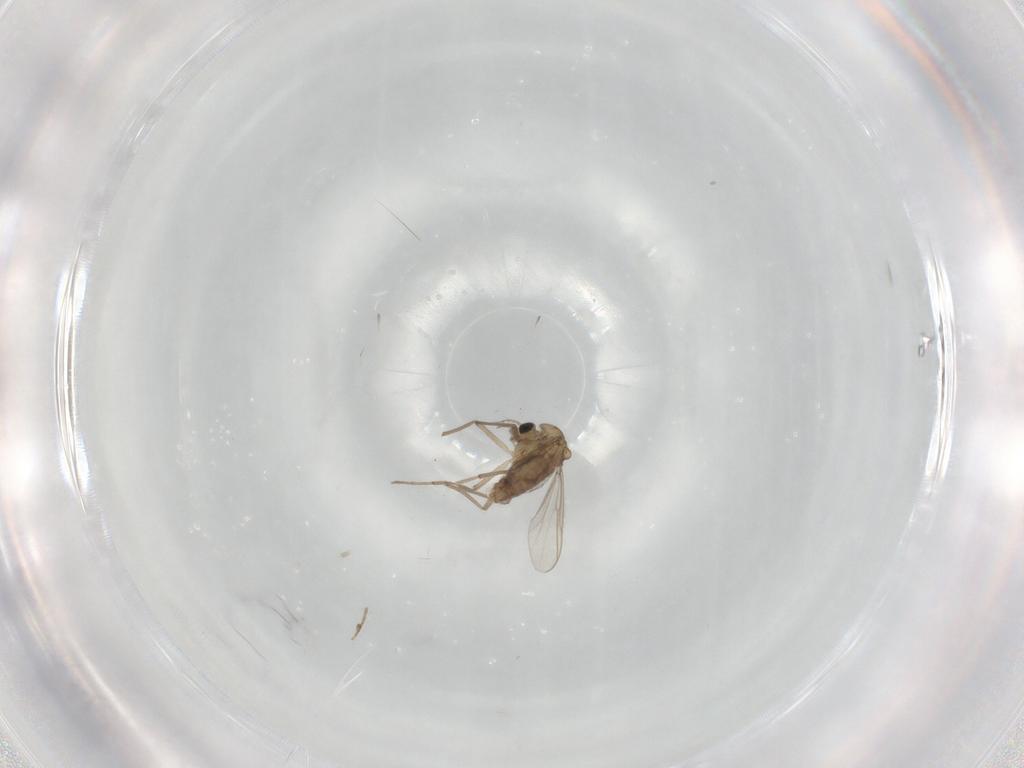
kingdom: Animalia
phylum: Arthropoda
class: Insecta
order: Diptera
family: Chironomidae
